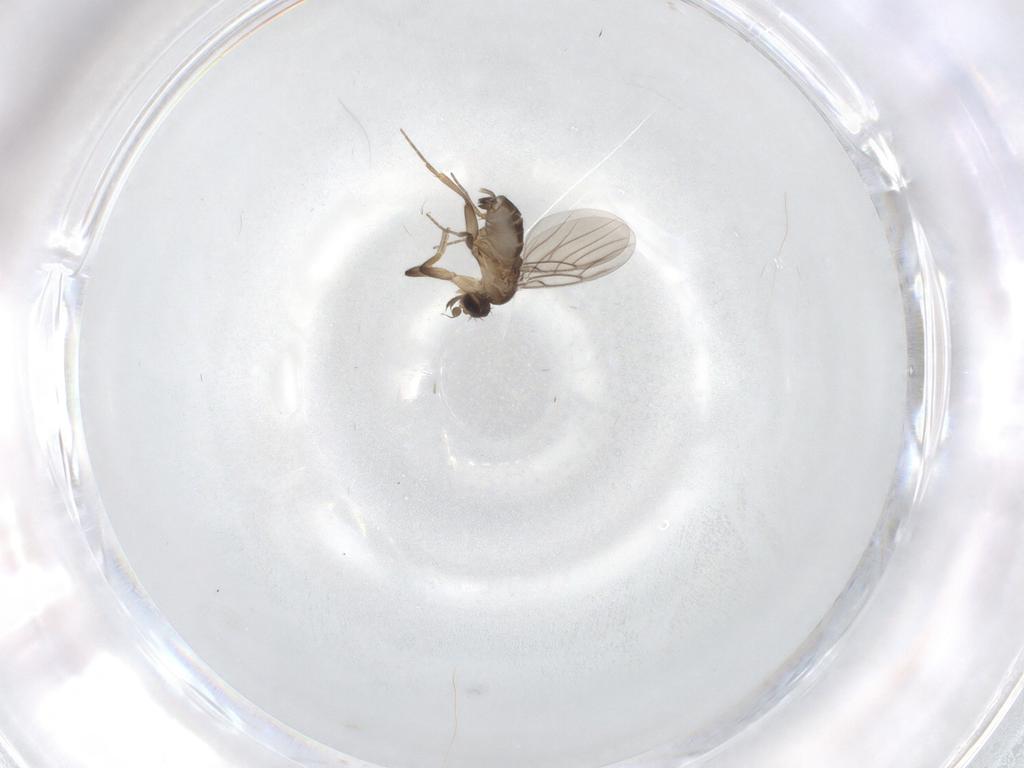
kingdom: Animalia
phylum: Arthropoda
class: Insecta
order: Diptera
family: Phoridae
